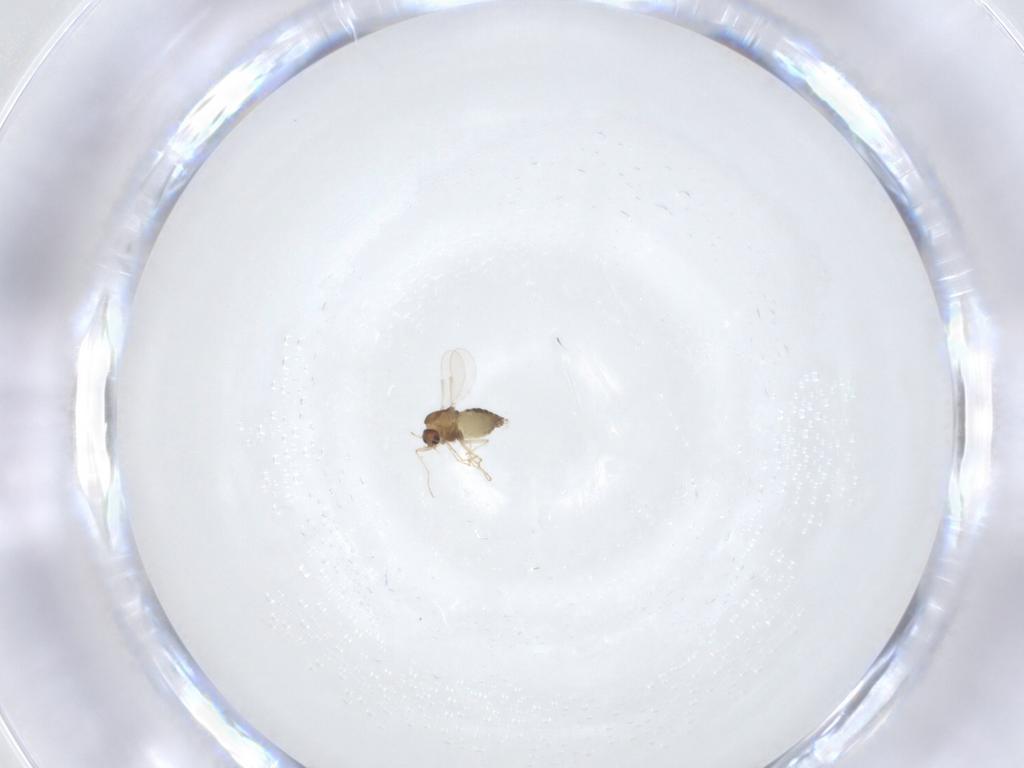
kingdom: Animalia
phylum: Arthropoda
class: Insecta
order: Diptera
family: Chironomidae
